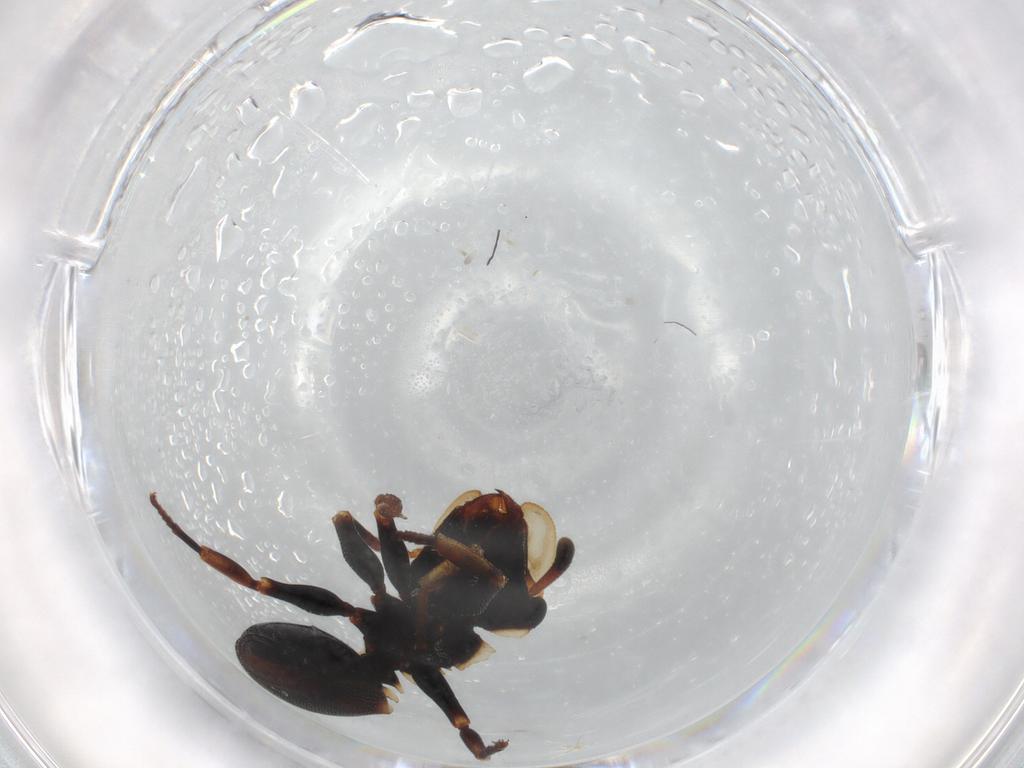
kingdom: Animalia
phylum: Arthropoda
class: Insecta
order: Hymenoptera
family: Formicidae
